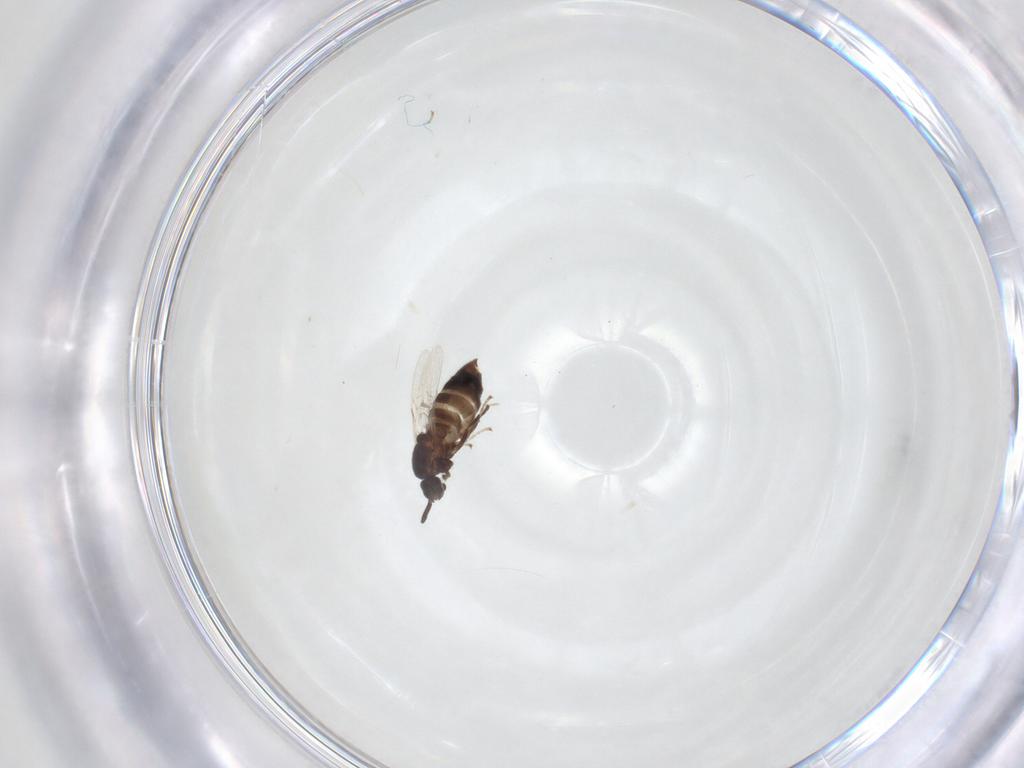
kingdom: Animalia
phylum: Arthropoda
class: Insecta
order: Diptera
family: Scatopsidae
